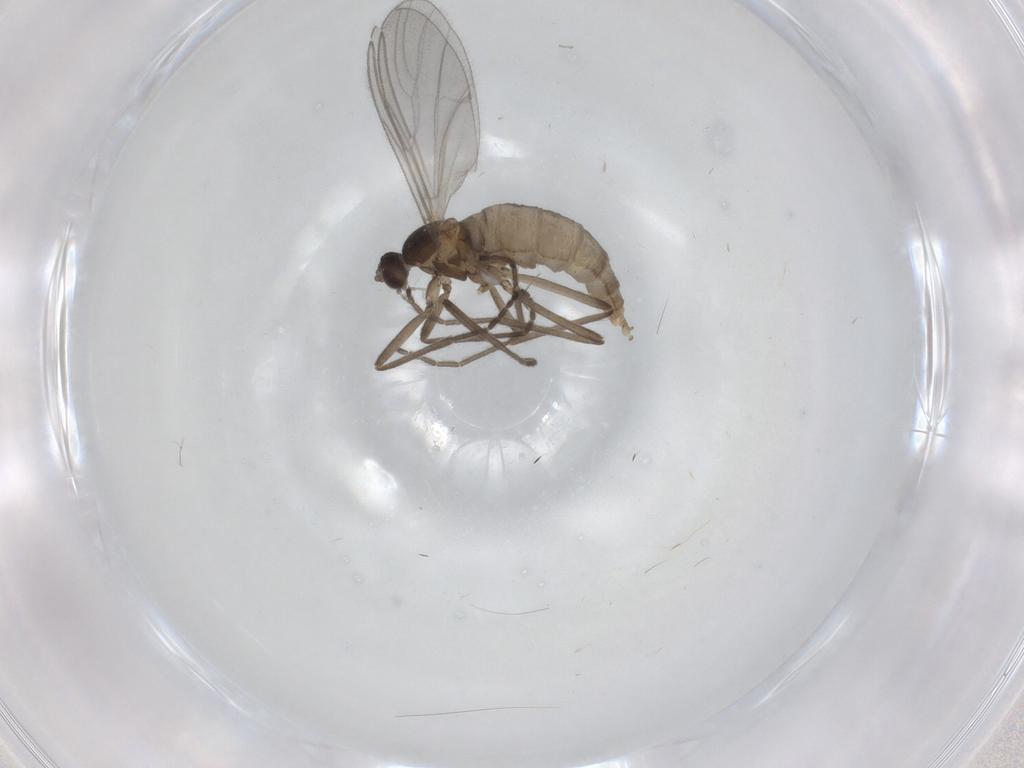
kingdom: Animalia
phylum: Arthropoda
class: Insecta
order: Diptera
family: Cecidomyiidae
